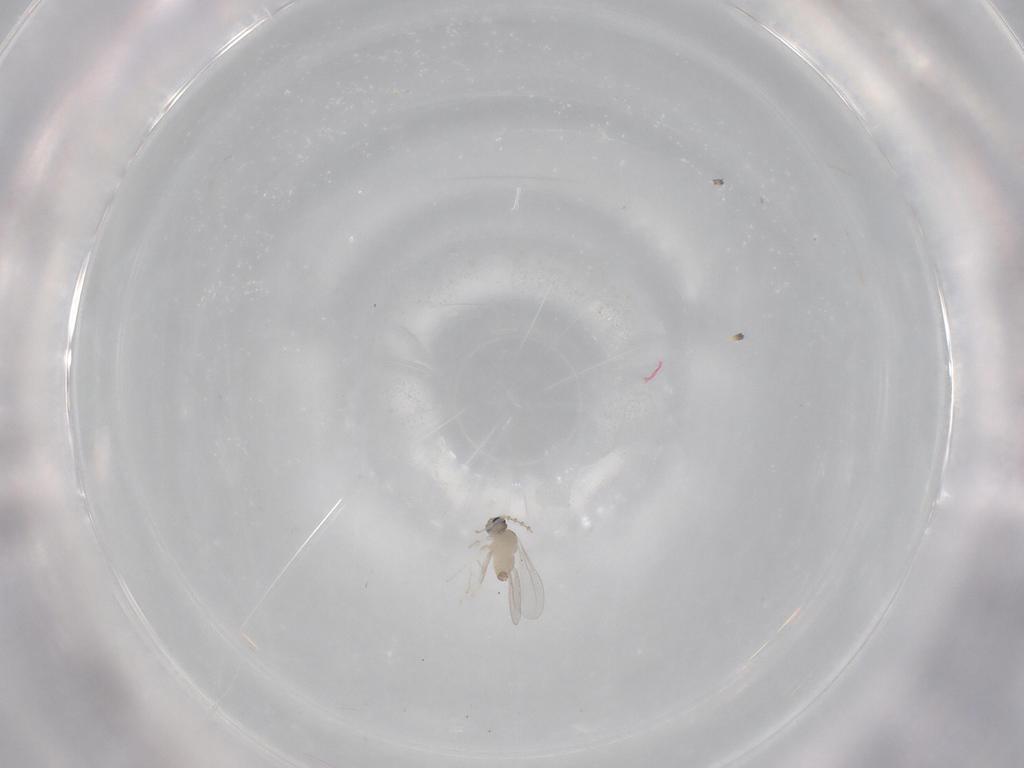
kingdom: Animalia
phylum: Arthropoda
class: Insecta
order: Diptera
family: Cecidomyiidae
